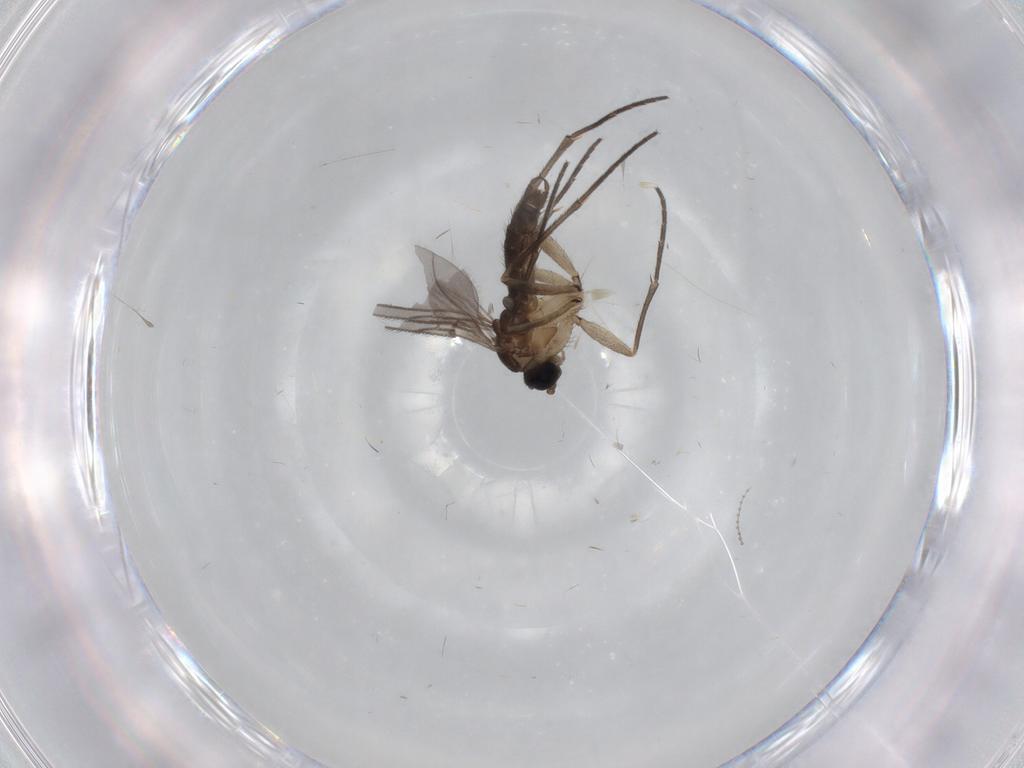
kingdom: Animalia
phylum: Arthropoda
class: Insecta
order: Diptera
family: Sciaridae
